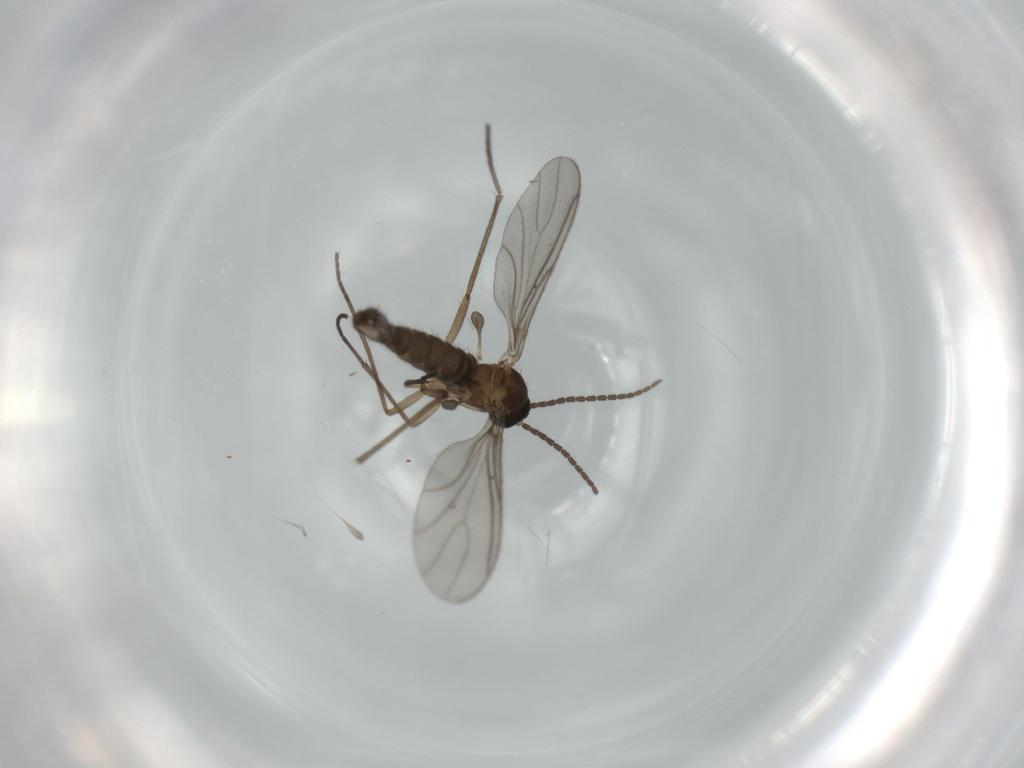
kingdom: Animalia
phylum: Arthropoda
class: Insecta
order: Diptera
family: Sciaridae
